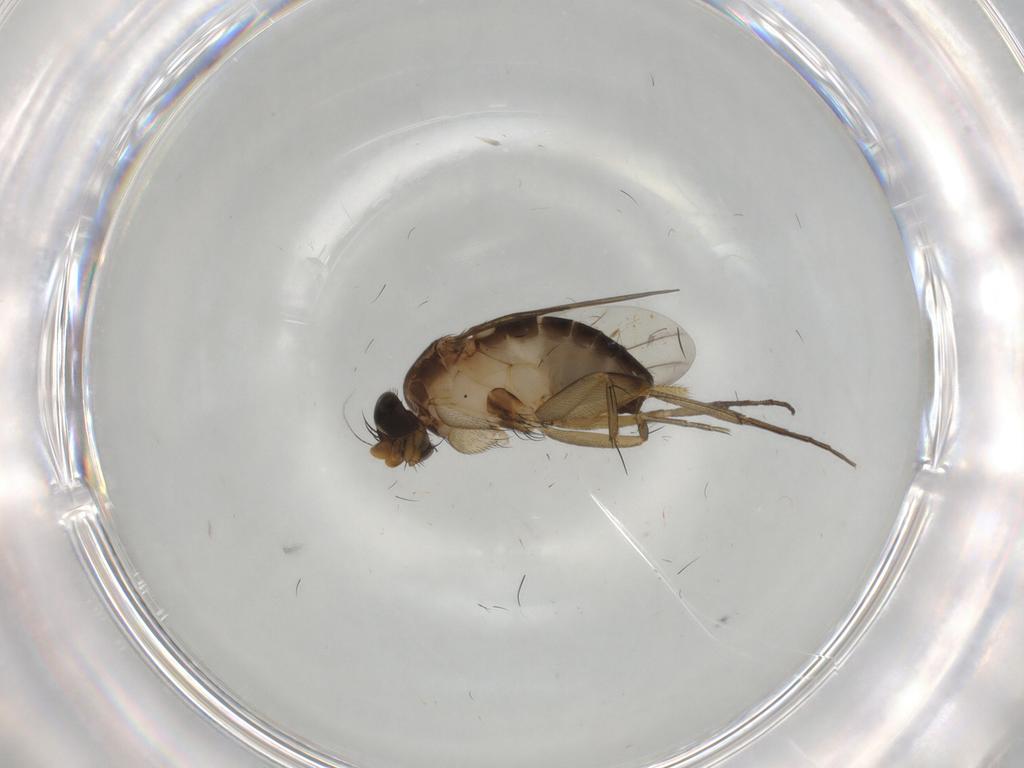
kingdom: Animalia
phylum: Arthropoda
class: Insecta
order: Diptera
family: Phoridae
